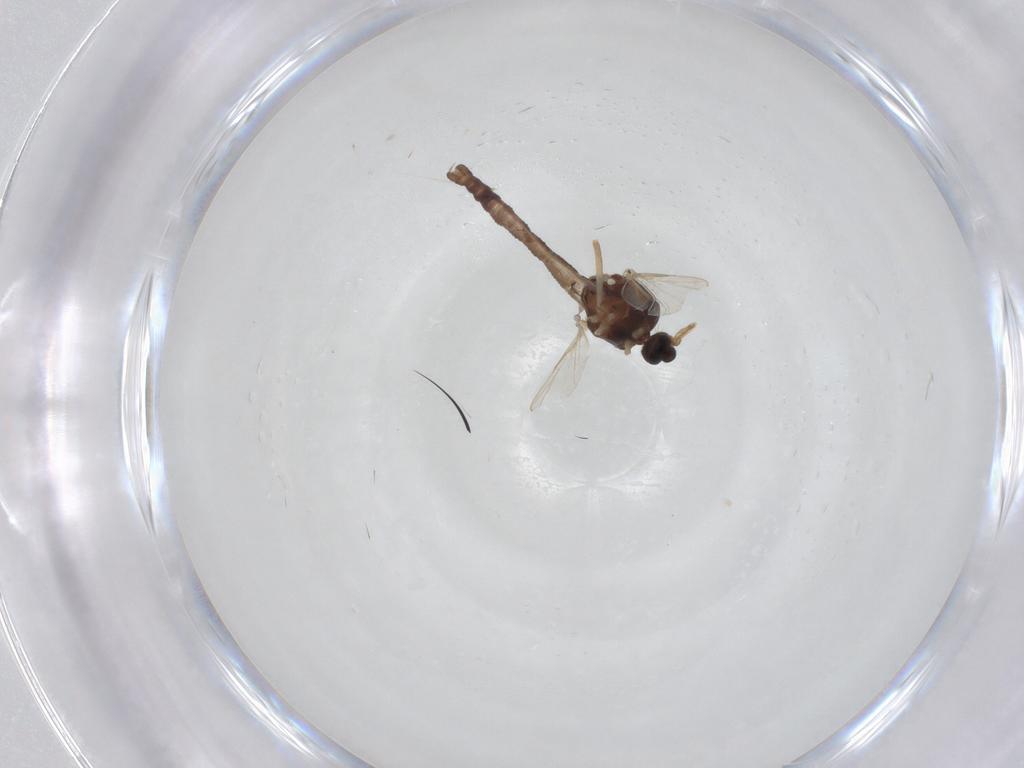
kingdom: Animalia
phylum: Arthropoda
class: Insecta
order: Diptera
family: Ceratopogonidae
